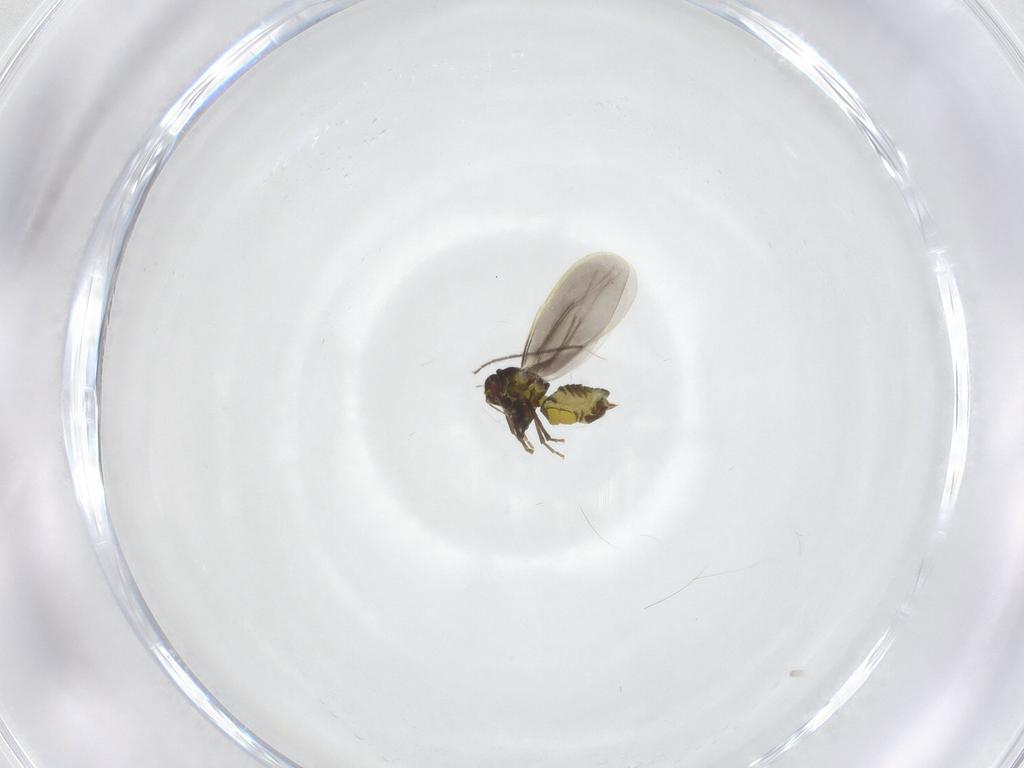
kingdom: Animalia
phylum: Arthropoda
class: Insecta
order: Hemiptera
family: Aleyrodidae
